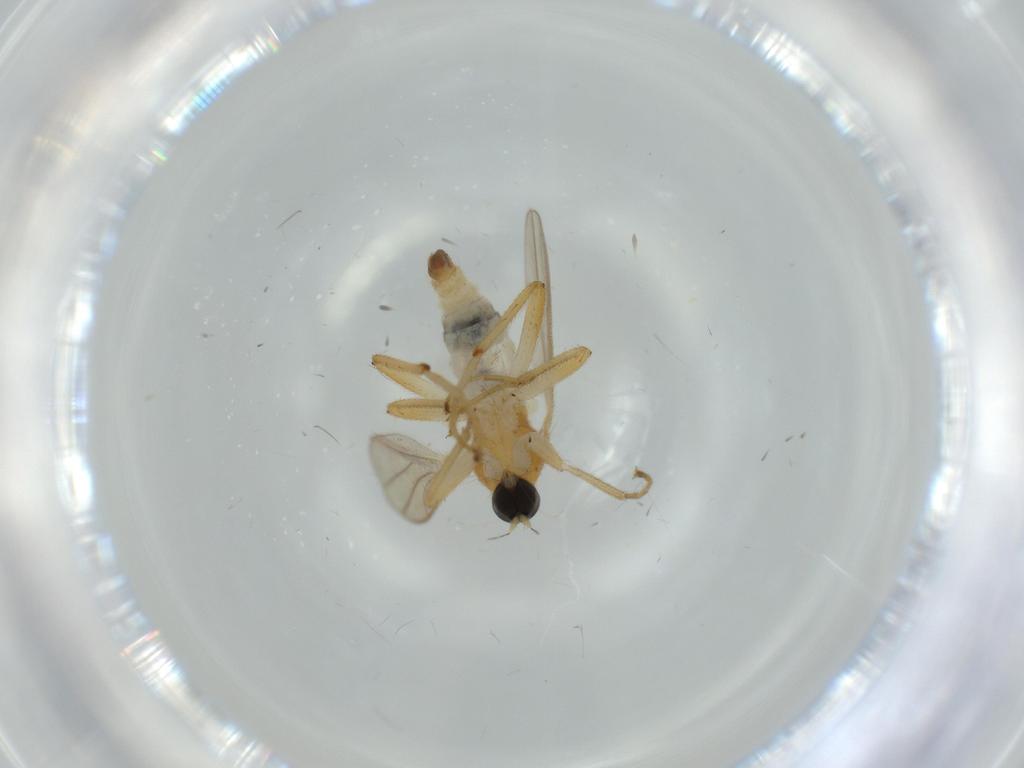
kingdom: Animalia
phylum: Arthropoda
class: Insecta
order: Diptera
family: Hybotidae
